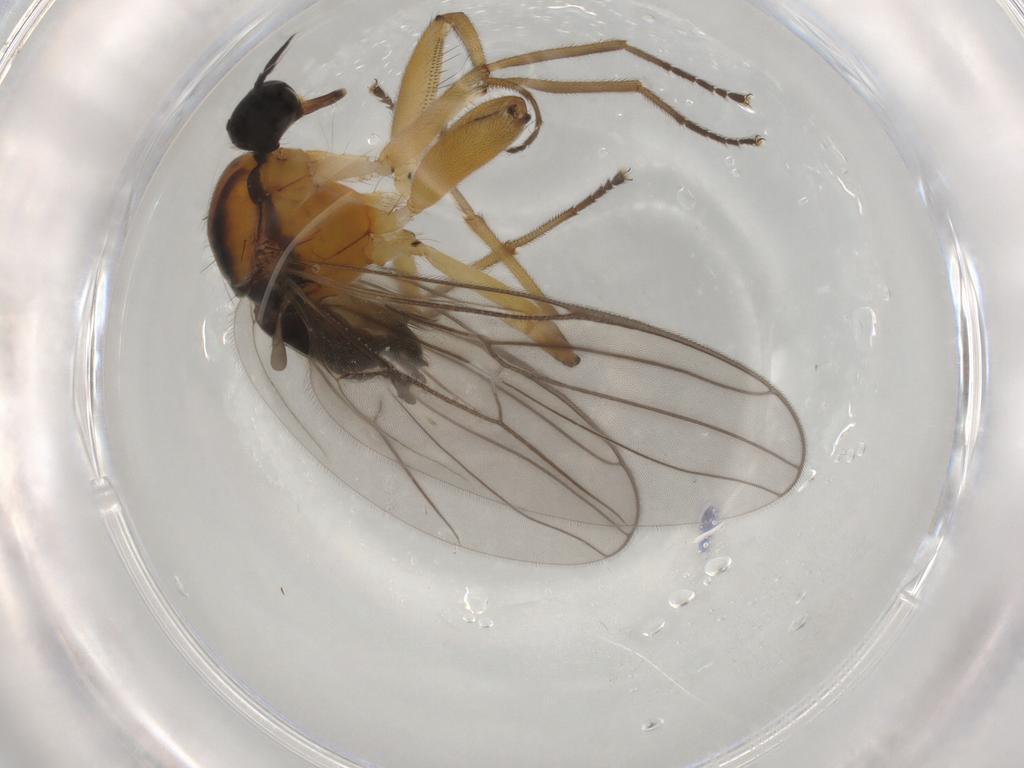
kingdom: Animalia
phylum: Arthropoda
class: Insecta
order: Diptera
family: Hybotidae
